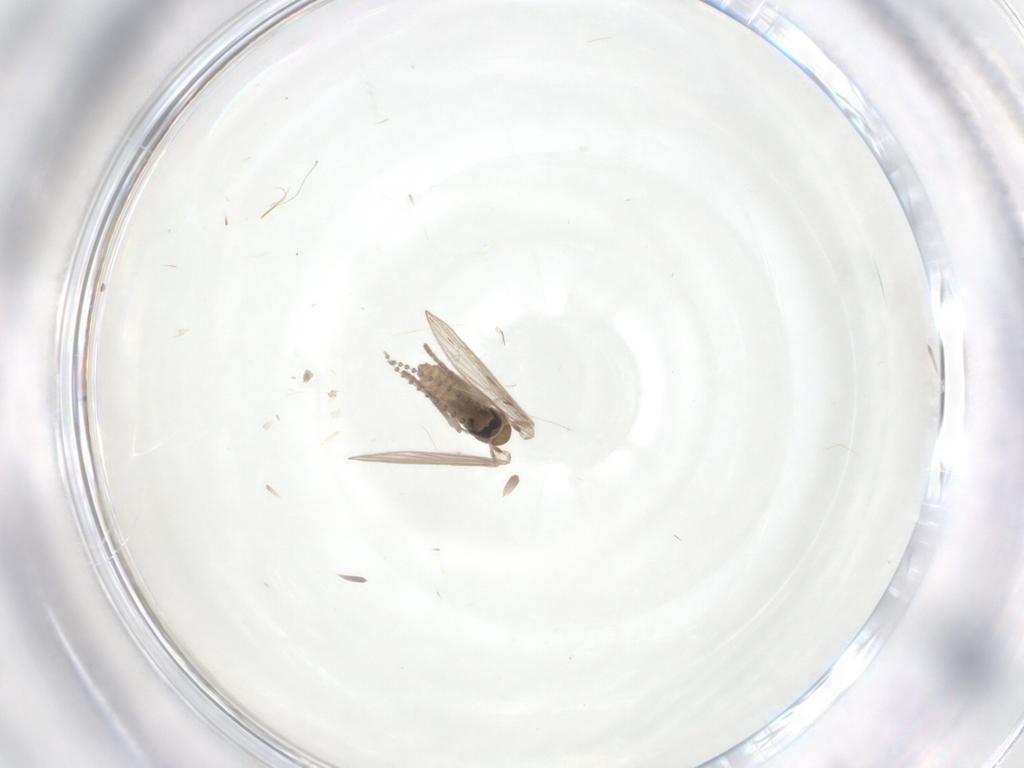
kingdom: Animalia
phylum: Arthropoda
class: Insecta
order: Diptera
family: Psychodidae
